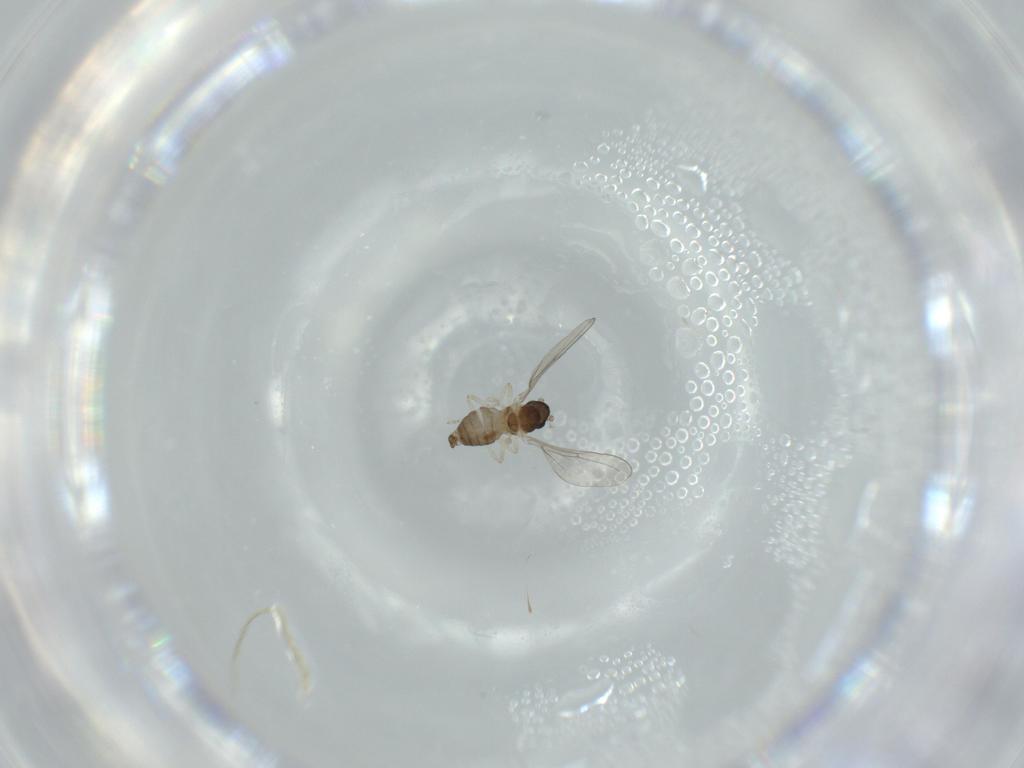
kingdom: Animalia
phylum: Arthropoda
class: Insecta
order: Diptera
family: Cecidomyiidae
